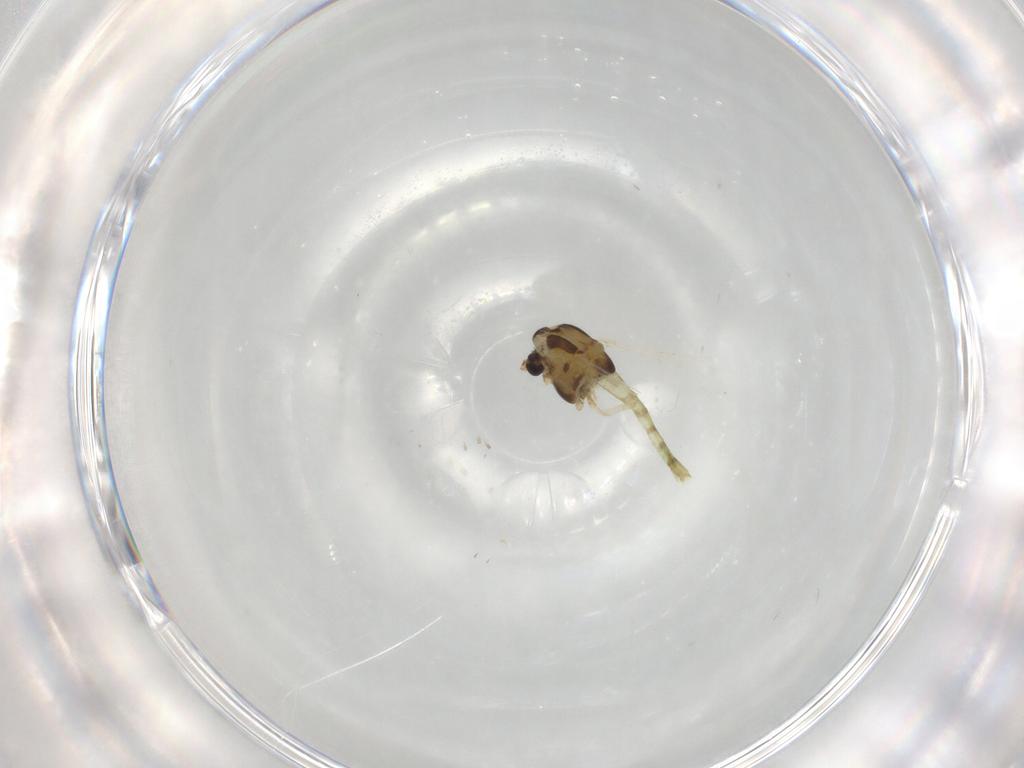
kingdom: Animalia
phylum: Arthropoda
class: Insecta
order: Diptera
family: Chironomidae
